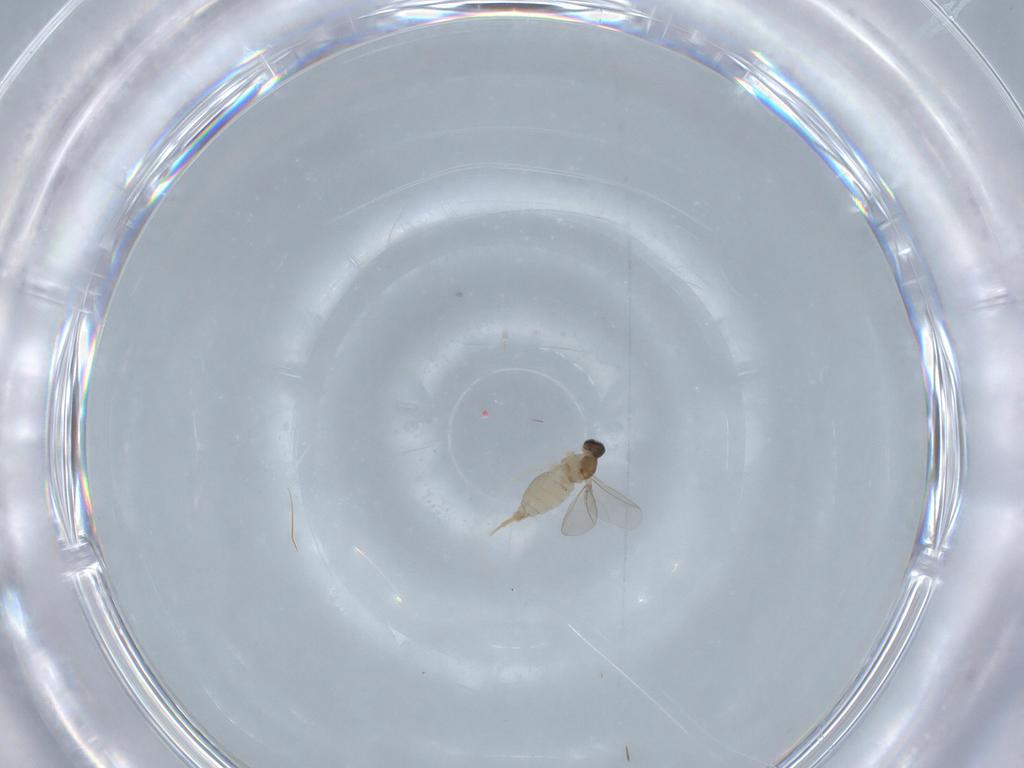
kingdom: Animalia
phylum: Arthropoda
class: Insecta
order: Diptera
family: Cecidomyiidae
